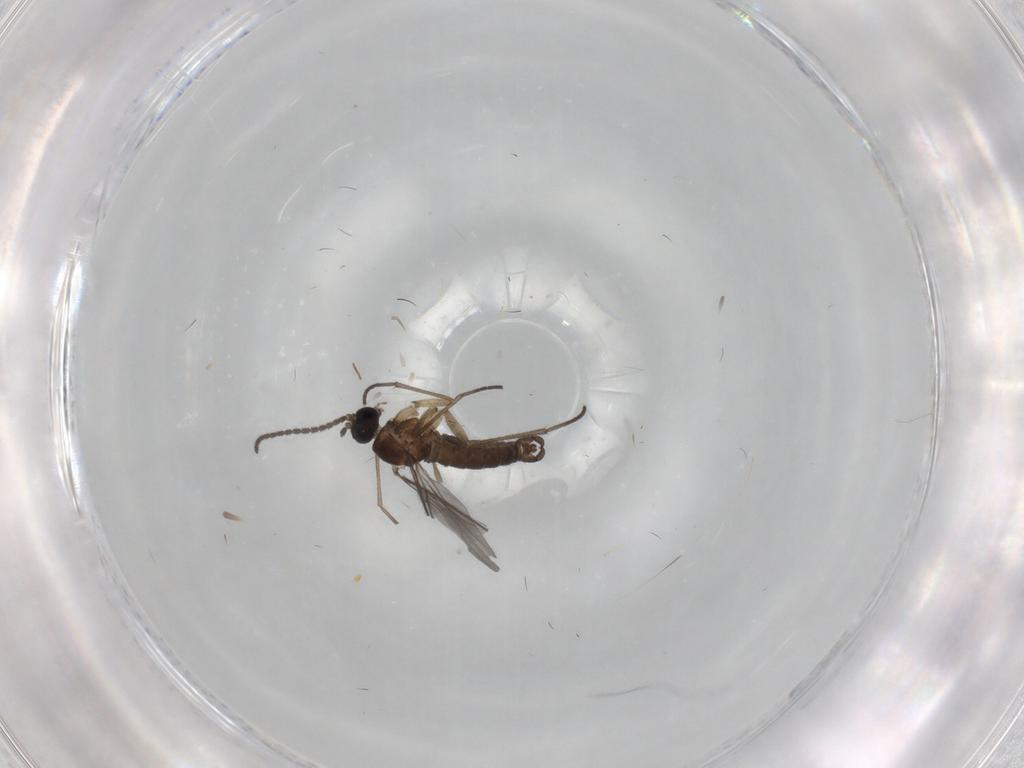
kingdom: Animalia
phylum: Arthropoda
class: Insecta
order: Diptera
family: Sciaridae
